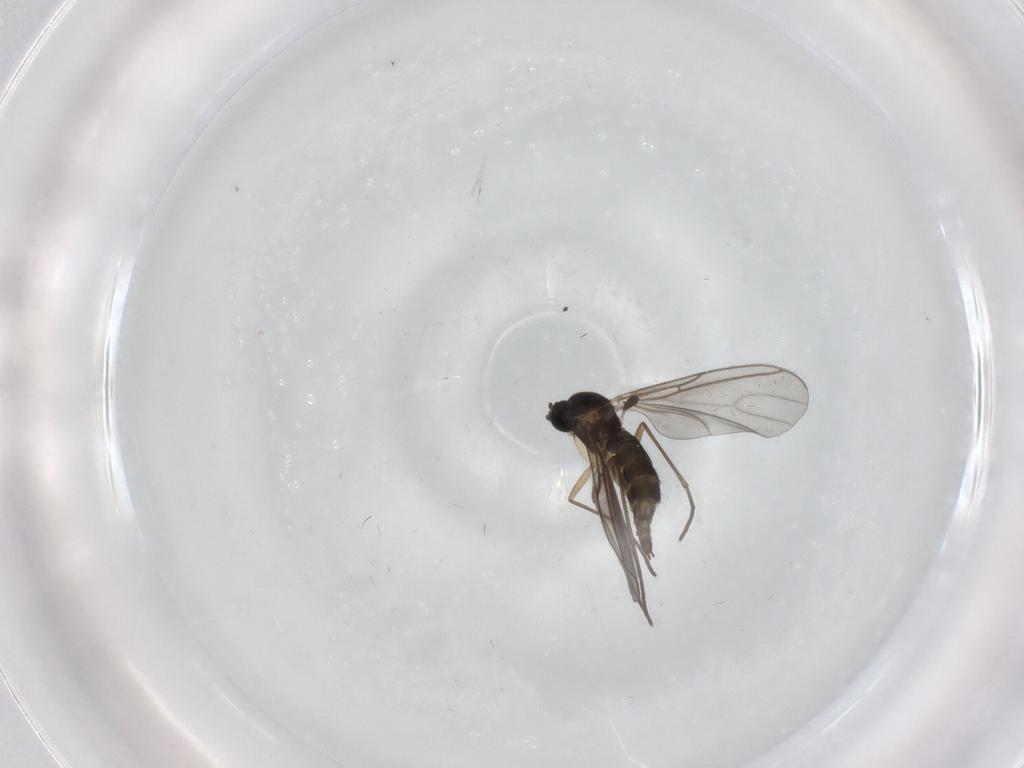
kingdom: Animalia
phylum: Arthropoda
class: Insecta
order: Diptera
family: Sciaridae
